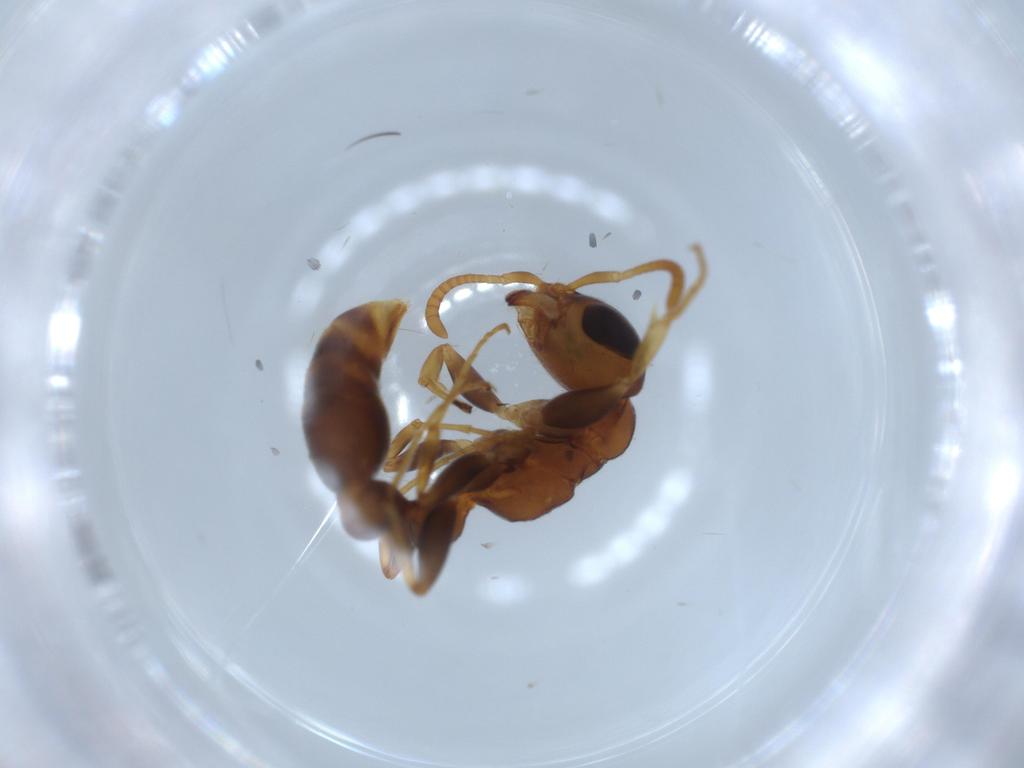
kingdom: Animalia
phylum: Arthropoda
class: Insecta
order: Hymenoptera
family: Formicidae
